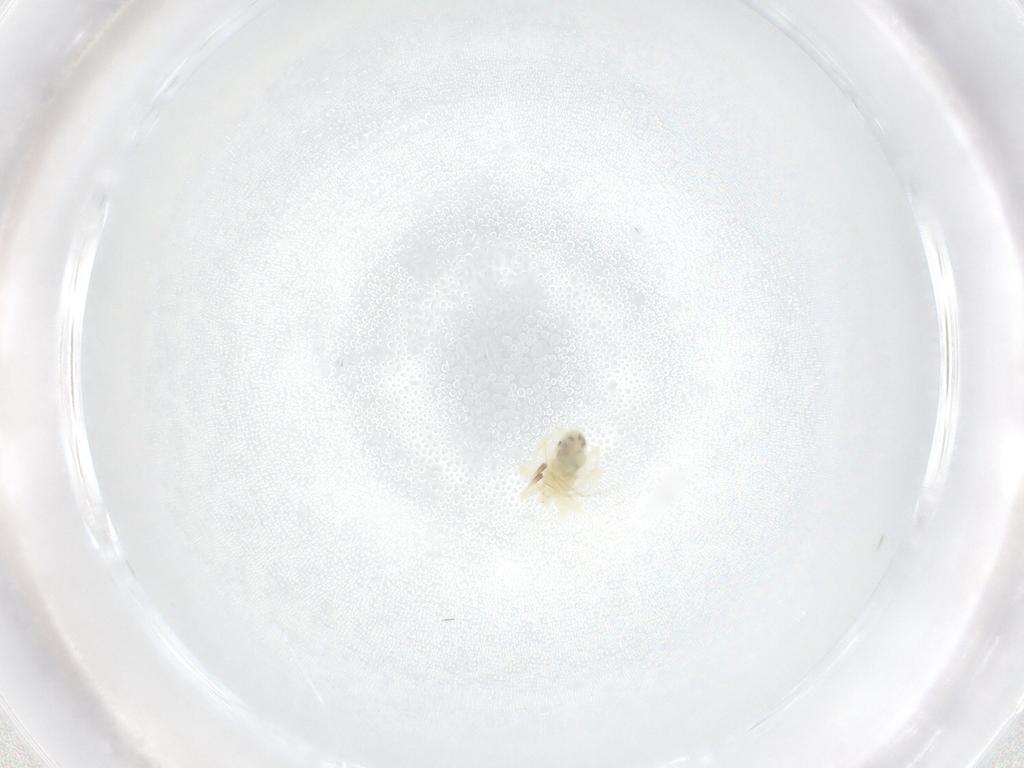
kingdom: Animalia
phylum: Arthropoda
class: Arachnida
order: Trombidiformes
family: Anystidae
